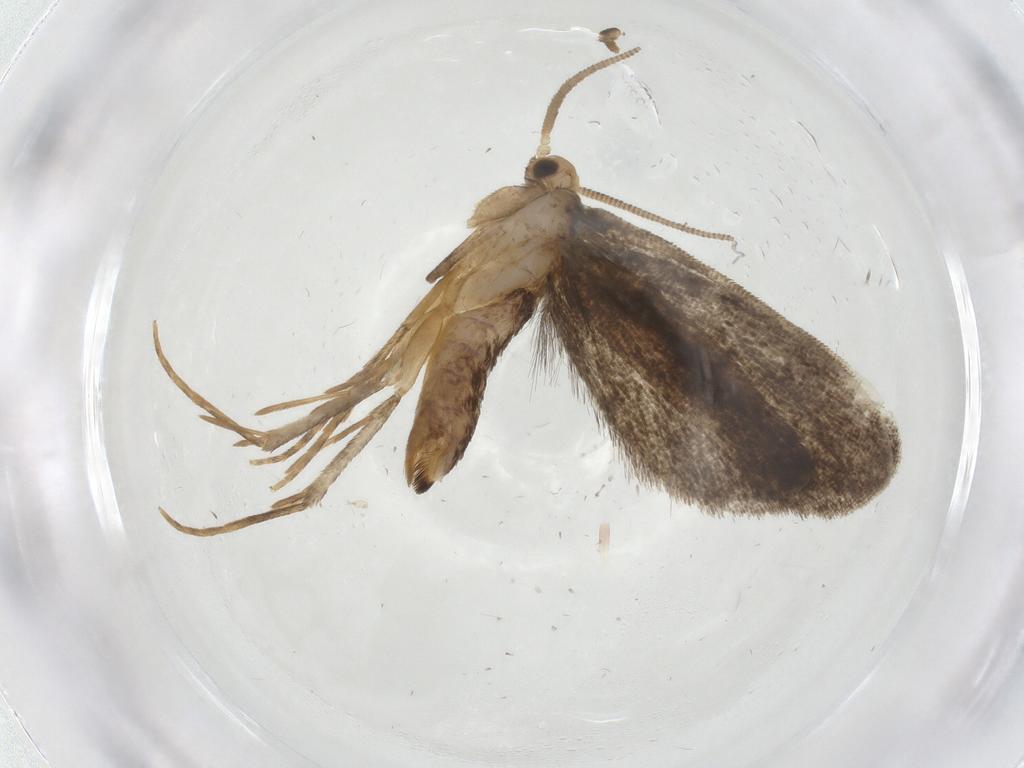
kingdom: Animalia
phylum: Arthropoda
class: Insecta
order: Lepidoptera
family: Dryadaulidae
